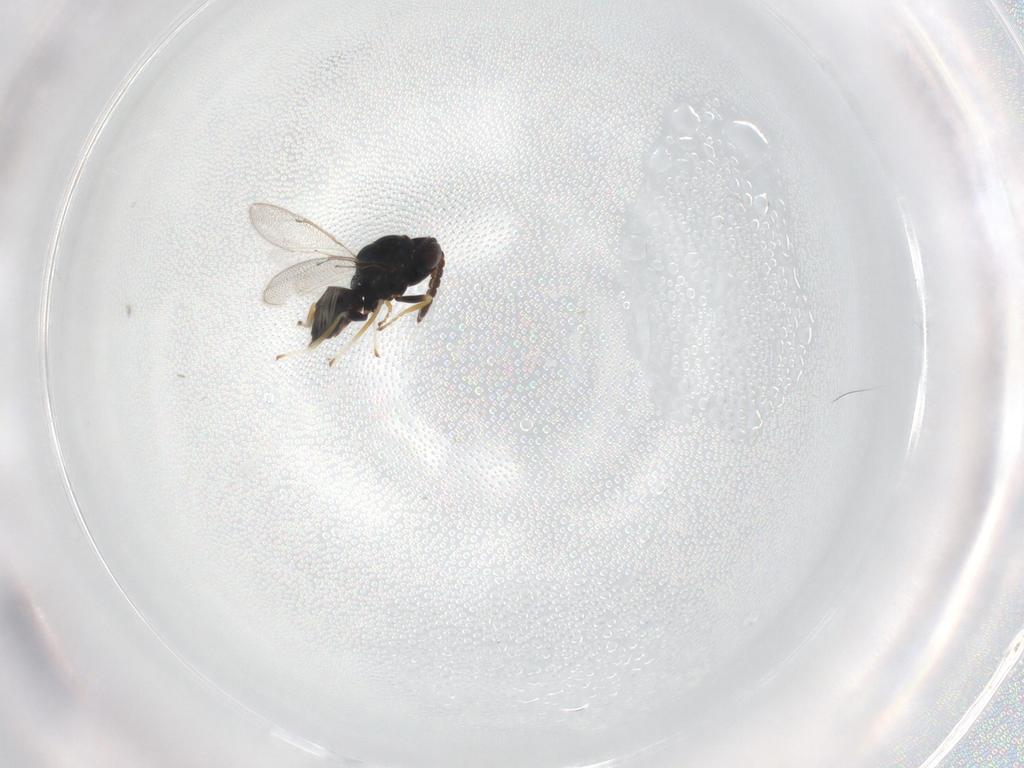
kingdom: Animalia
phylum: Arthropoda
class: Insecta
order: Hymenoptera
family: Eulophidae
